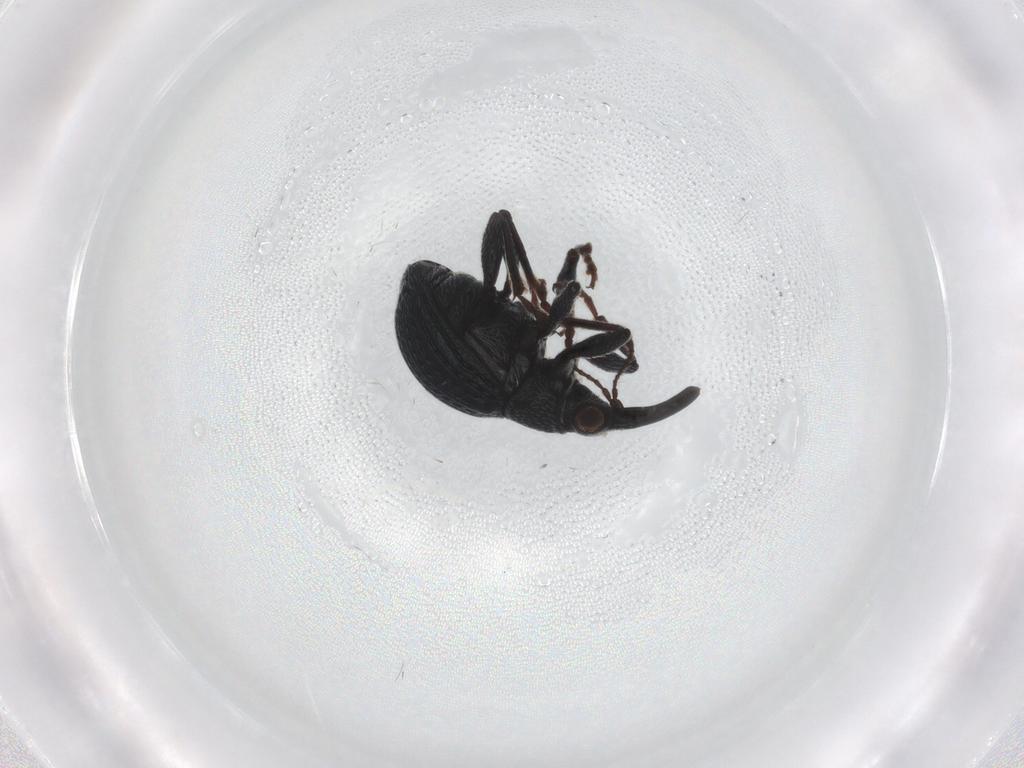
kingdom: Animalia
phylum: Arthropoda
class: Insecta
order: Coleoptera
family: Brentidae
